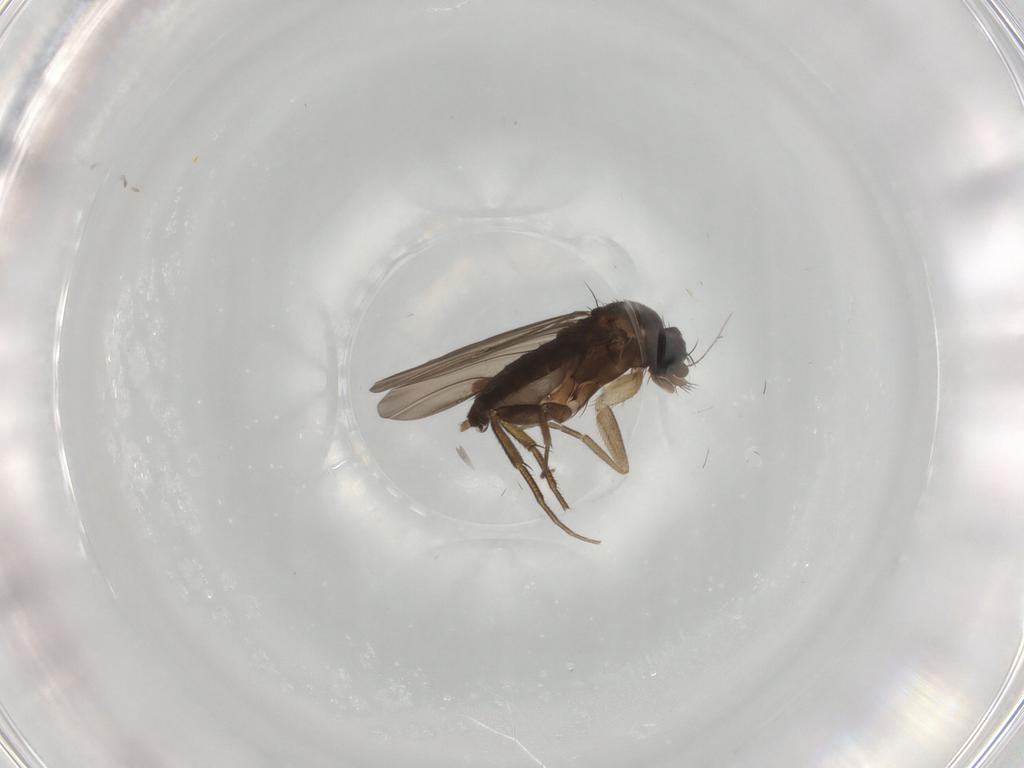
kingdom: Animalia
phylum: Arthropoda
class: Insecta
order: Diptera
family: Phoridae
